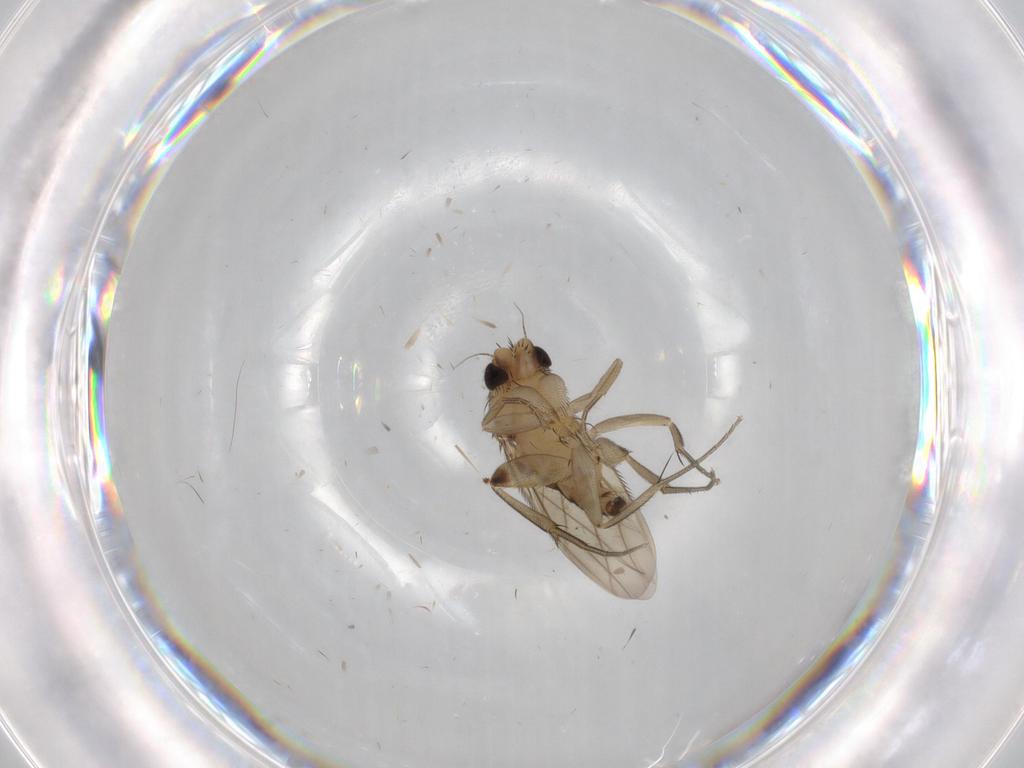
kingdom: Animalia
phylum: Arthropoda
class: Insecta
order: Diptera
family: Phoridae
